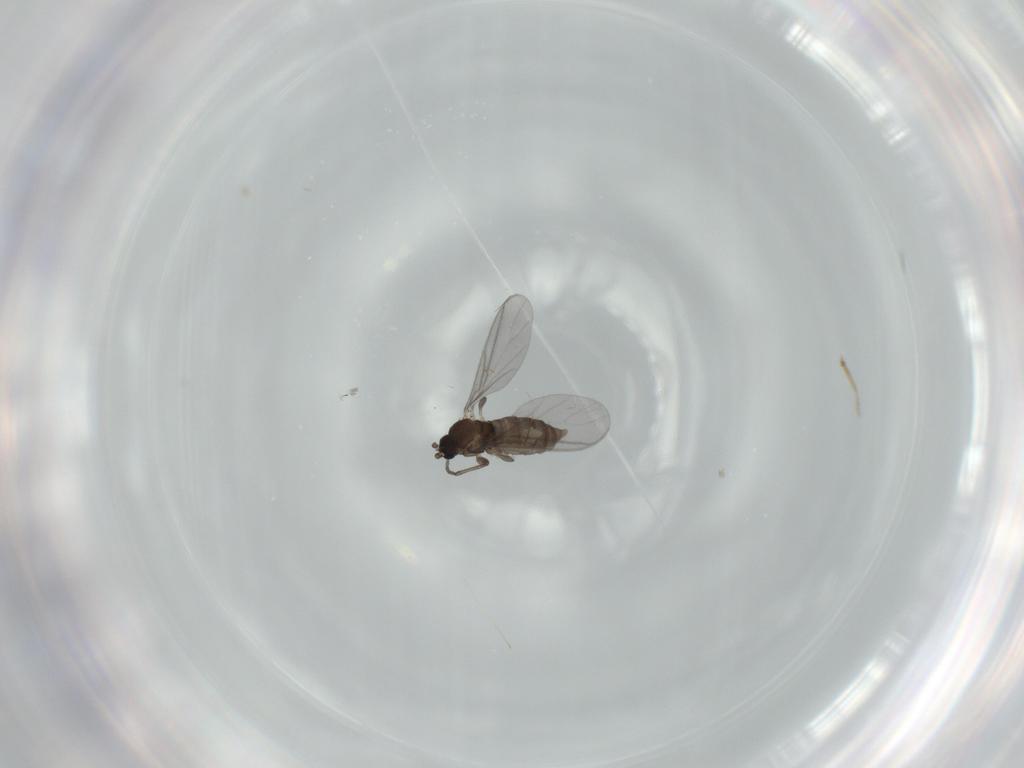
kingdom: Animalia
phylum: Arthropoda
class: Insecta
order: Diptera
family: Sciaridae
